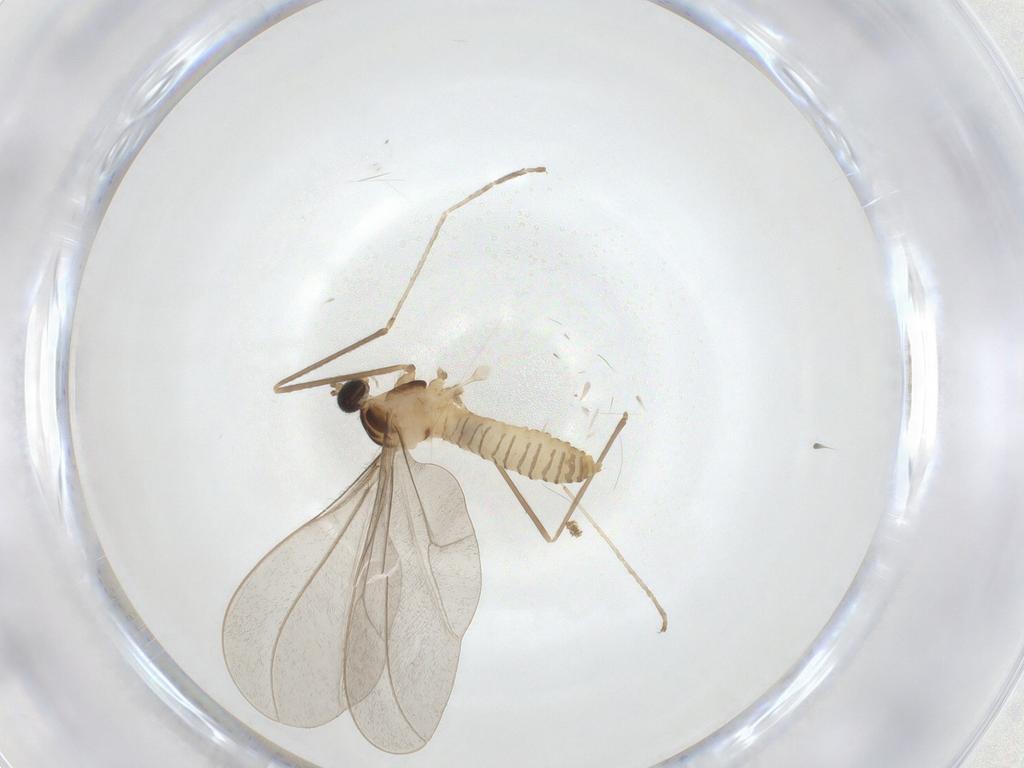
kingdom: Animalia
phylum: Arthropoda
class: Insecta
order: Diptera
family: Cecidomyiidae
